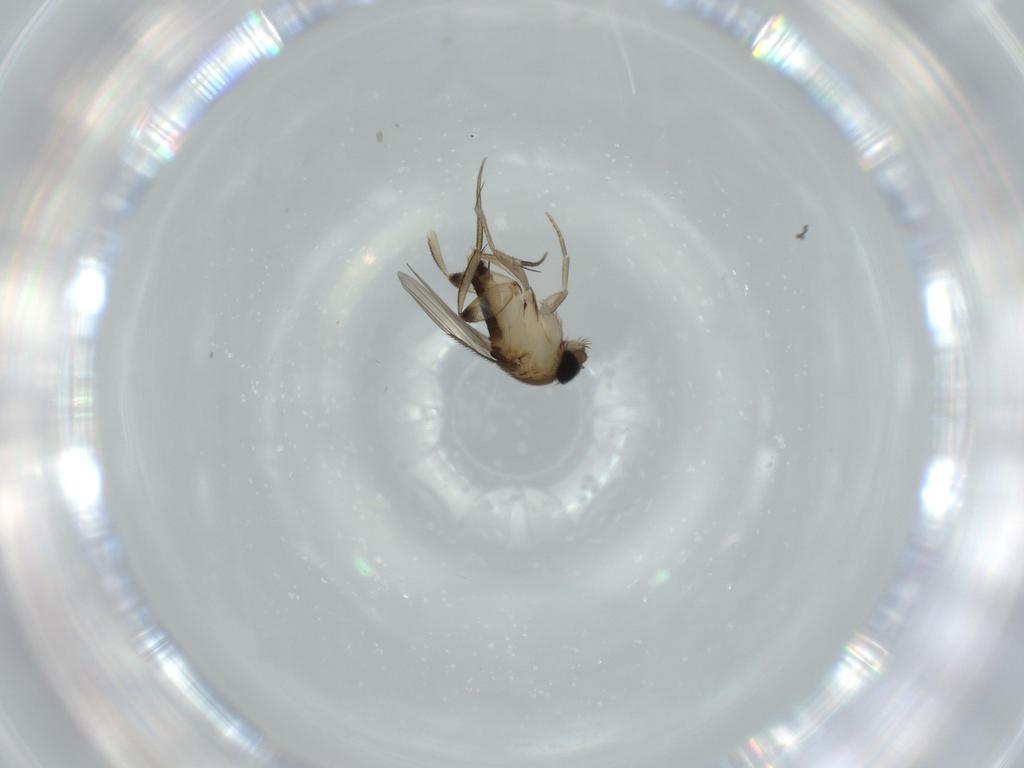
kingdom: Animalia
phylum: Arthropoda
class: Insecta
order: Diptera
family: Phoridae
